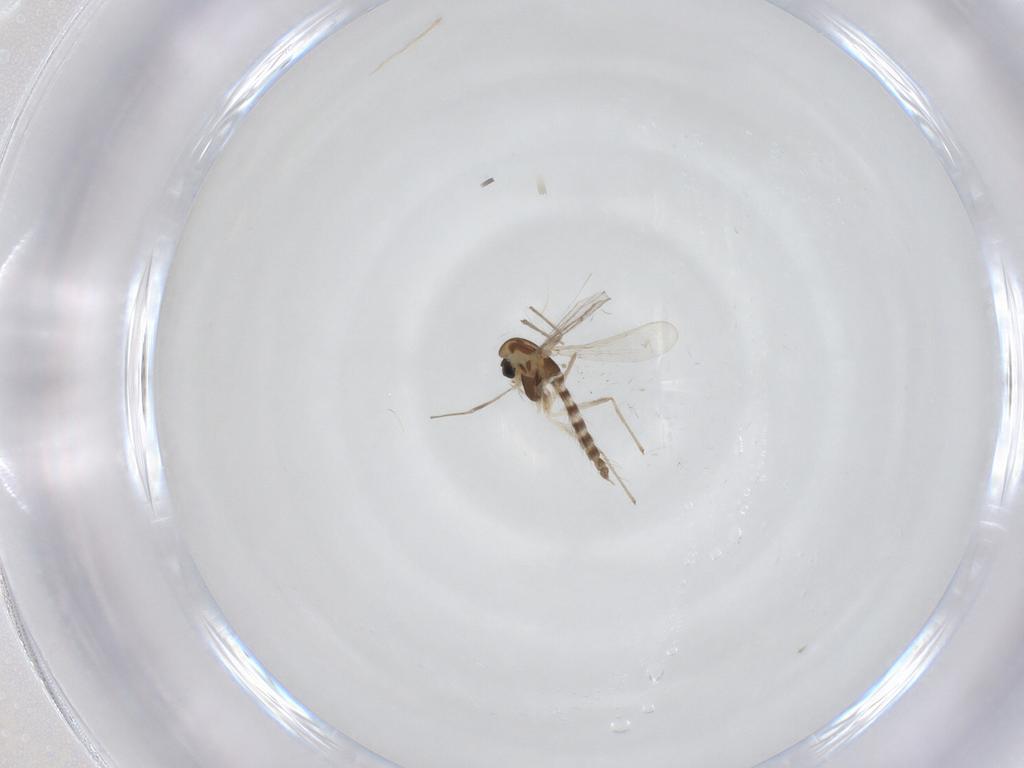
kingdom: Animalia
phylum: Arthropoda
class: Insecta
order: Diptera
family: Chironomidae
